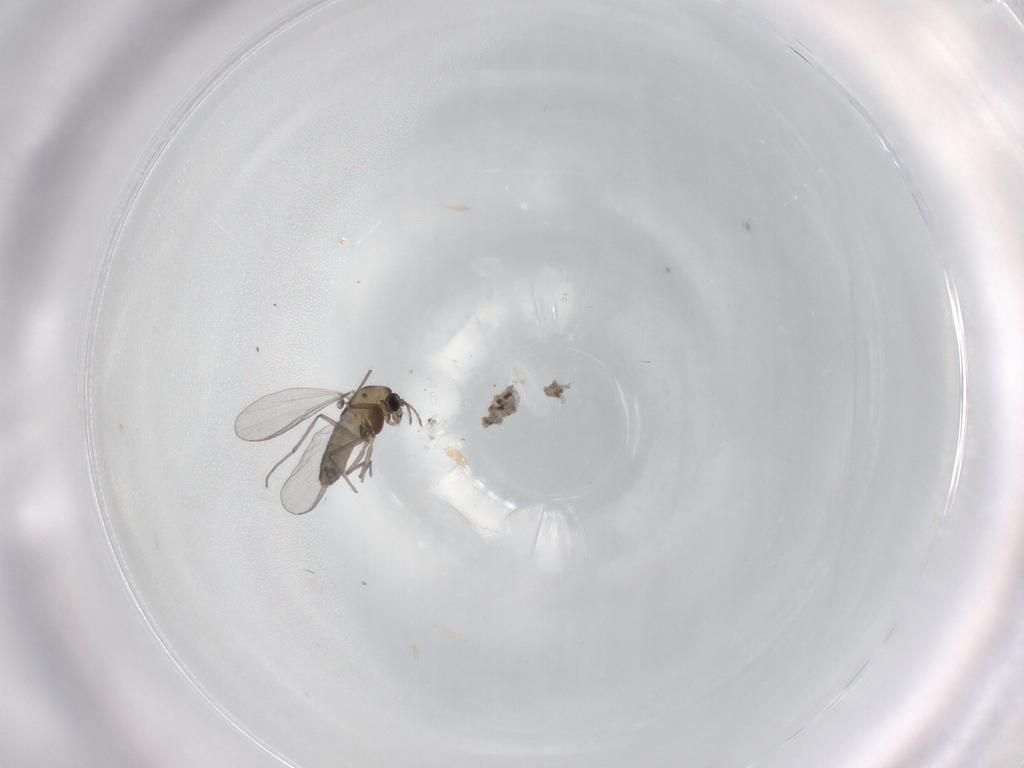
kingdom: Animalia
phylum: Arthropoda
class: Insecta
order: Diptera
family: Chironomidae
